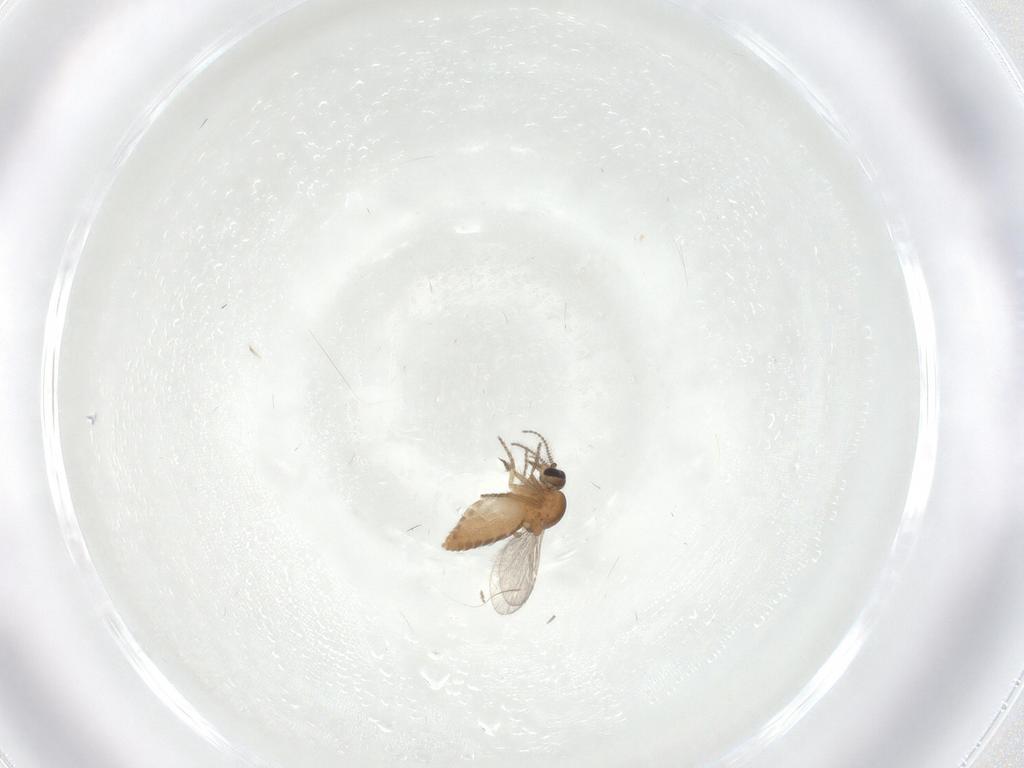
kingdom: Animalia
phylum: Arthropoda
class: Insecta
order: Diptera
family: Ceratopogonidae
